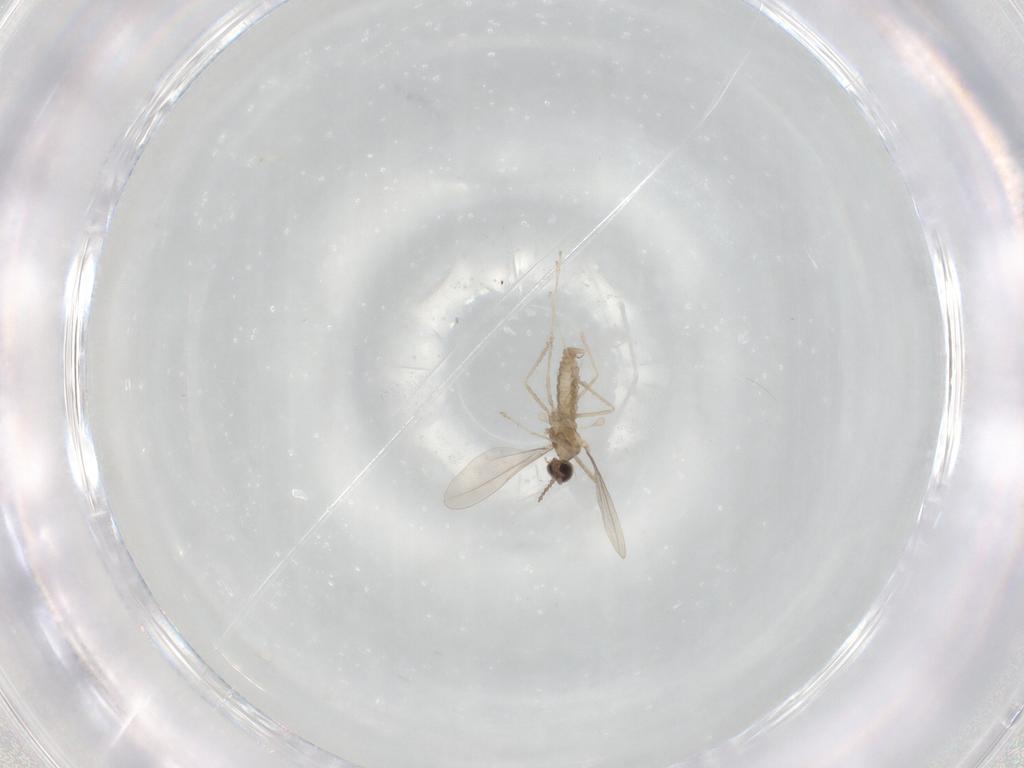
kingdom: Animalia
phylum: Arthropoda
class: Insecta
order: Diptera
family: Cecidomyiidae
